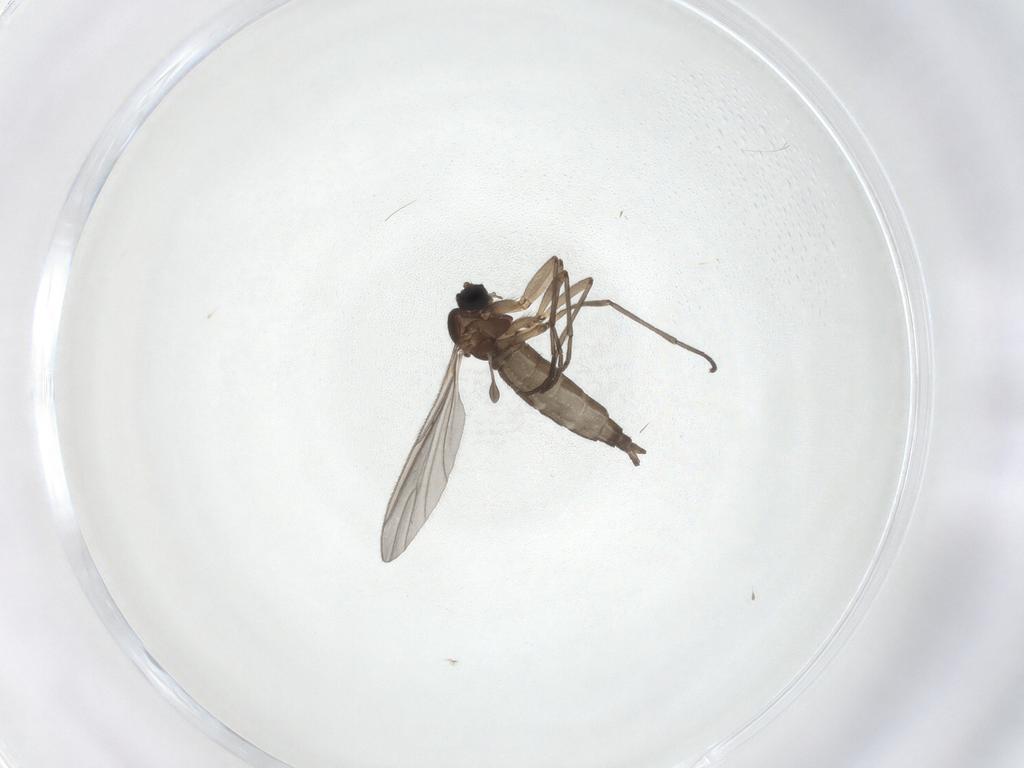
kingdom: Animalia
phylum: Arthropoda
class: Insecta
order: Diptera
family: Sciaridae
